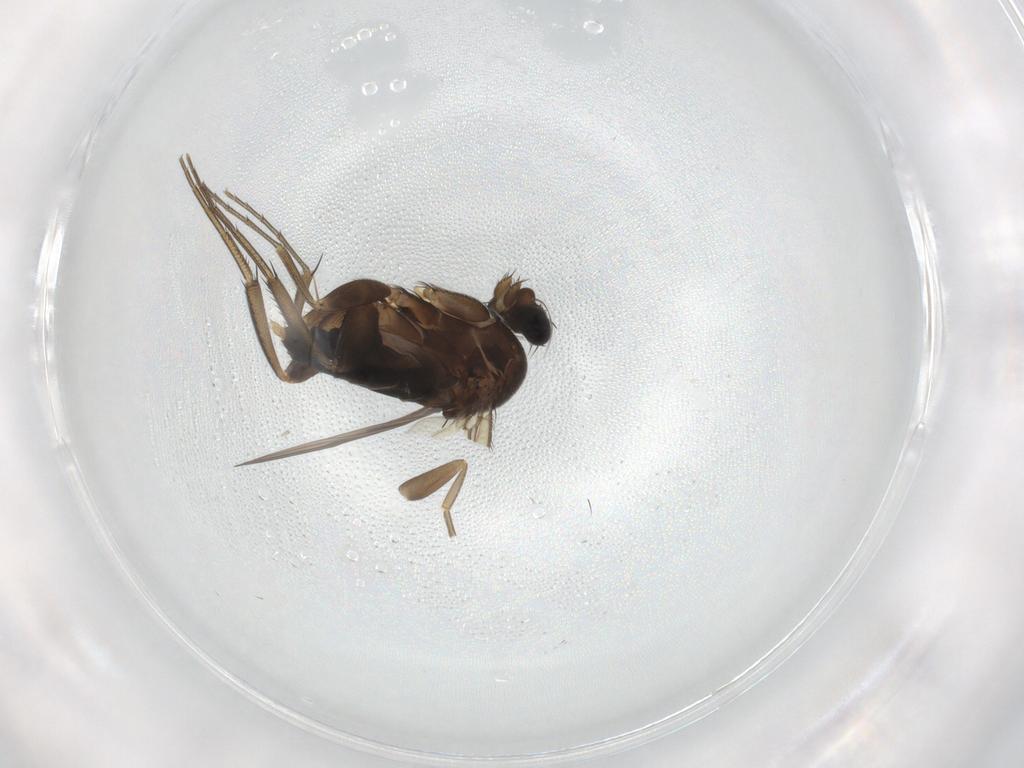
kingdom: Animalia
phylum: Arthropoda
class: Insecta
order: Diptera
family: Phoridae
